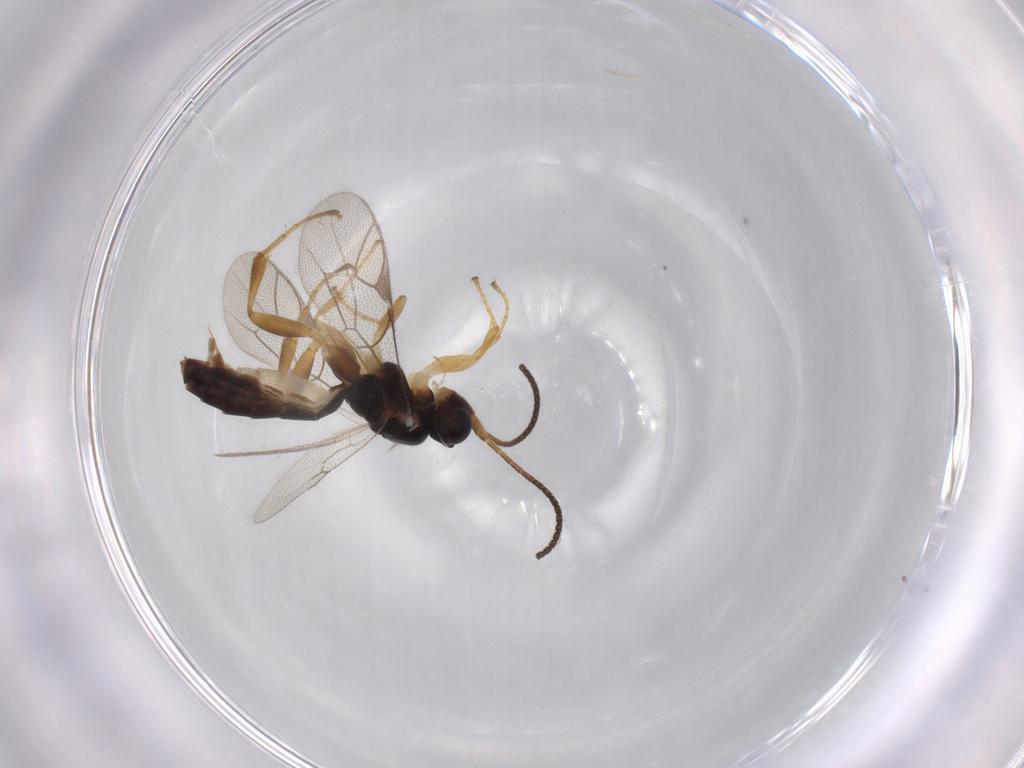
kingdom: Animalia
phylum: Arthropoda
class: Insecta
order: Hymenoptera
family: Ichneumonidae
